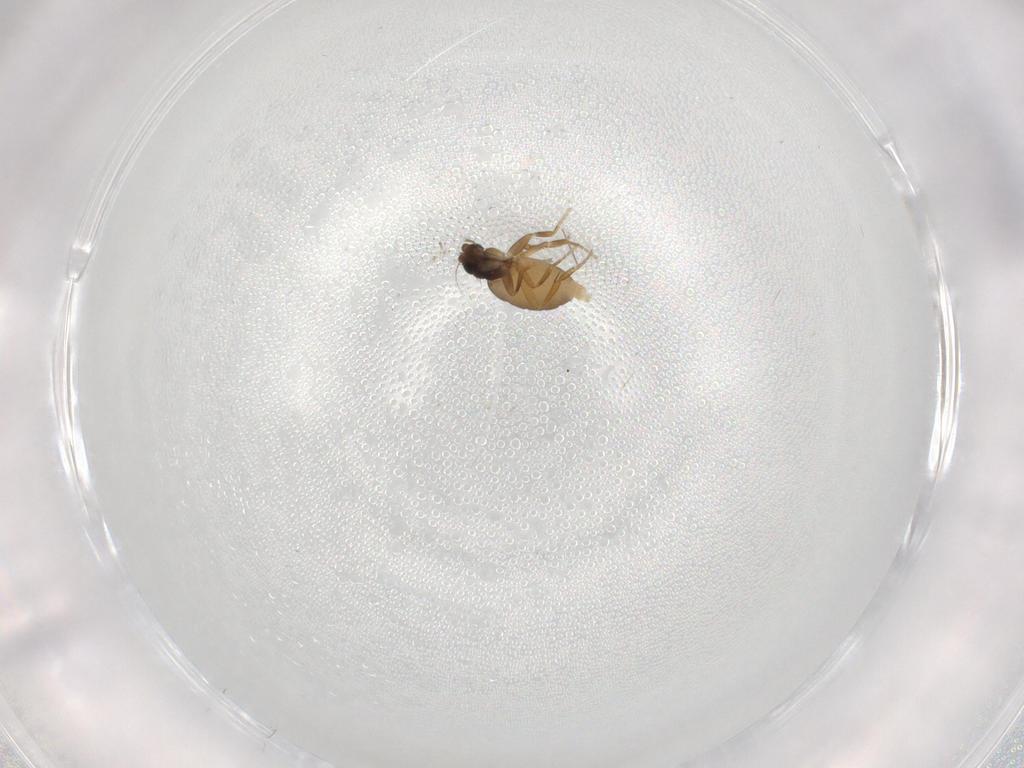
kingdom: Animalia
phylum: Arthropoda
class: Insecta
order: Diptera
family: Phoridae
